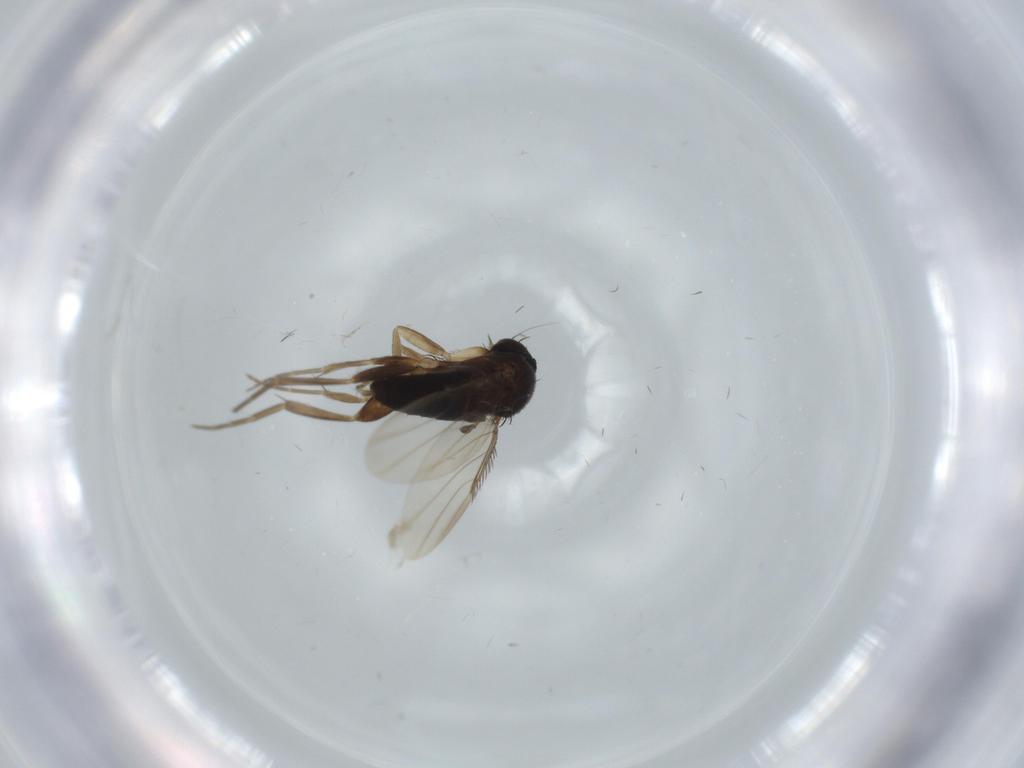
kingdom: Animalia
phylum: Arthropoda
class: Insecta
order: Diptera
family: Phoridae
